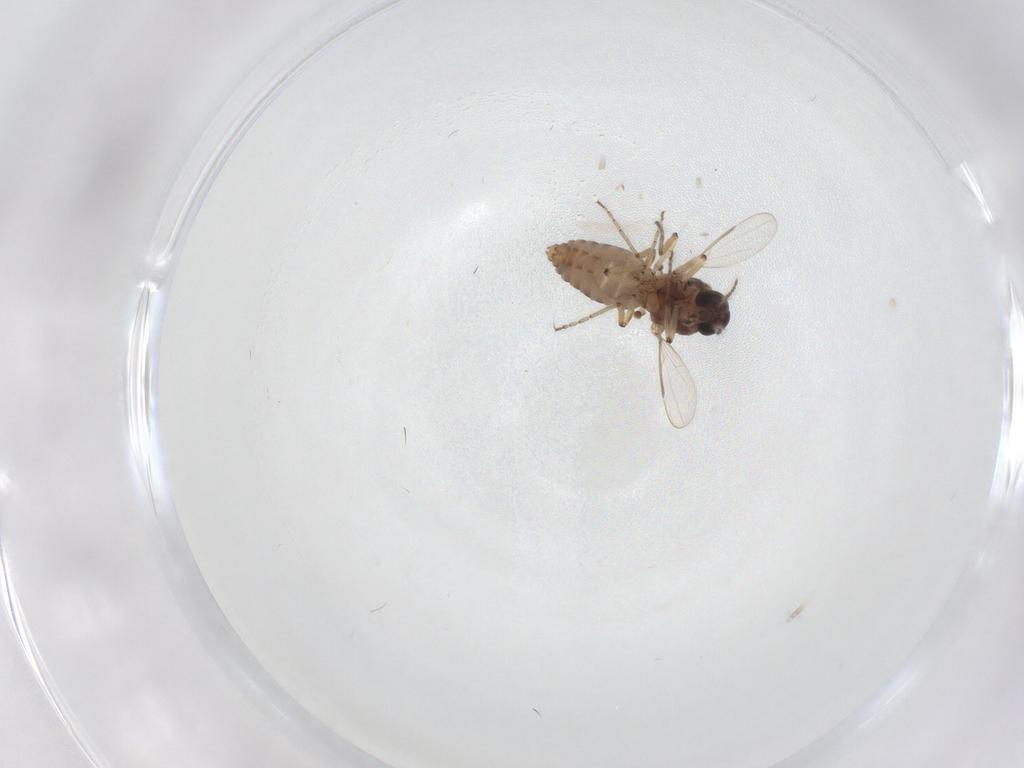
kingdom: Animalia
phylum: Arthropoda
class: Insecta
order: Diptera
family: Ceratopogonidae
